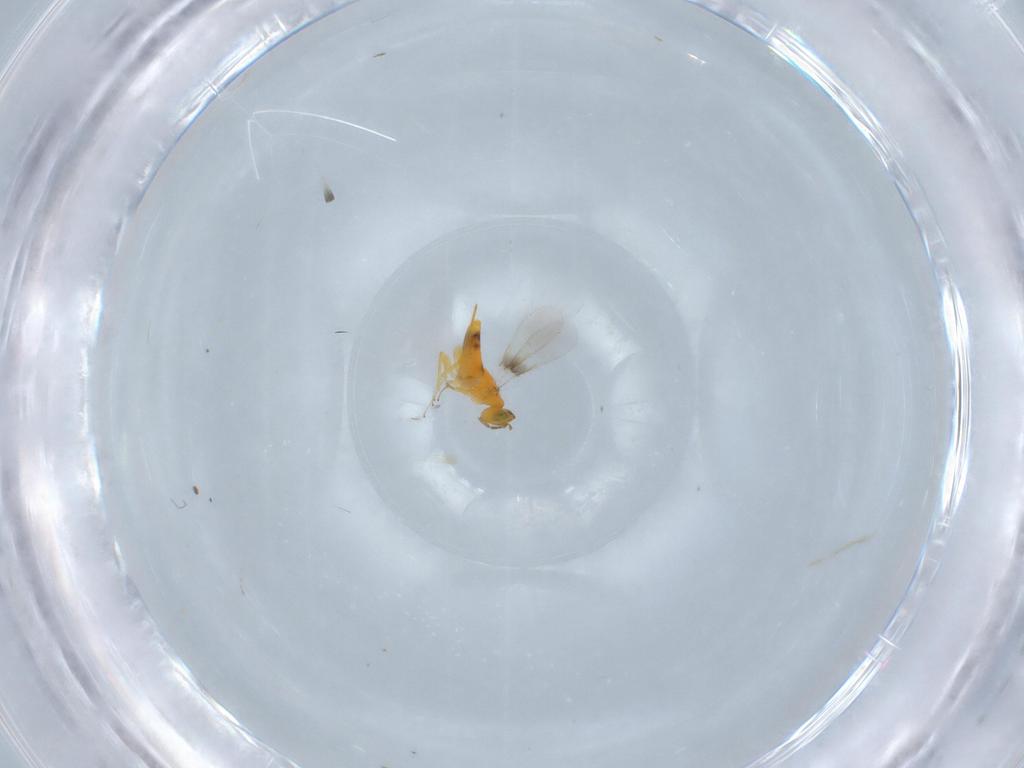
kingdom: Animalia
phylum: Arthropoda
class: Insecta
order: Hymenoptera
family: Aphelinidae
